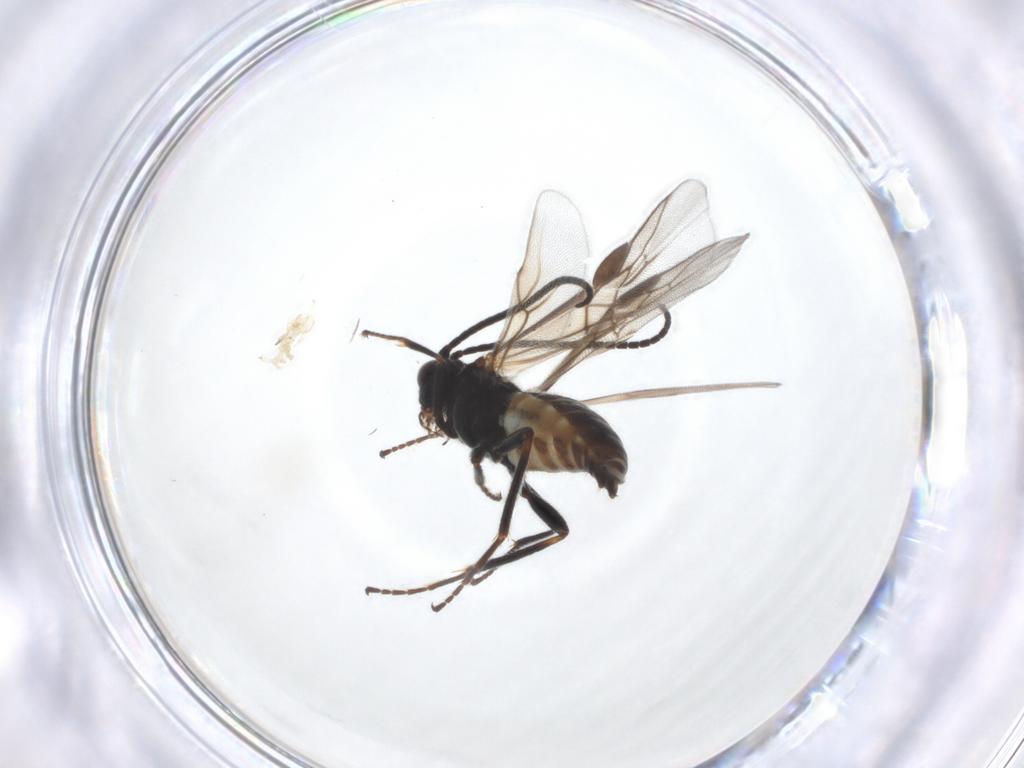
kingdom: Animalia
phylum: Arthropoda
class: Insecta
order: Hymenoptera
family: Braconidae
